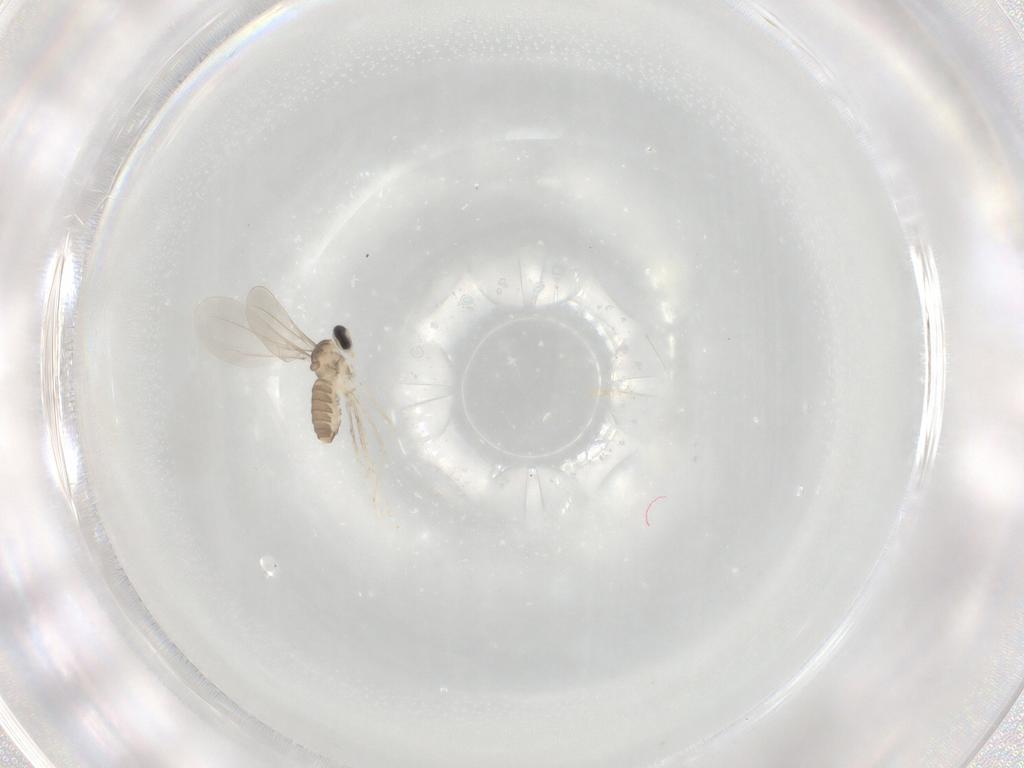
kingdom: Animalia
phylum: Arthropoda
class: Insecta
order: Diptera
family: Cecidomyiidae
